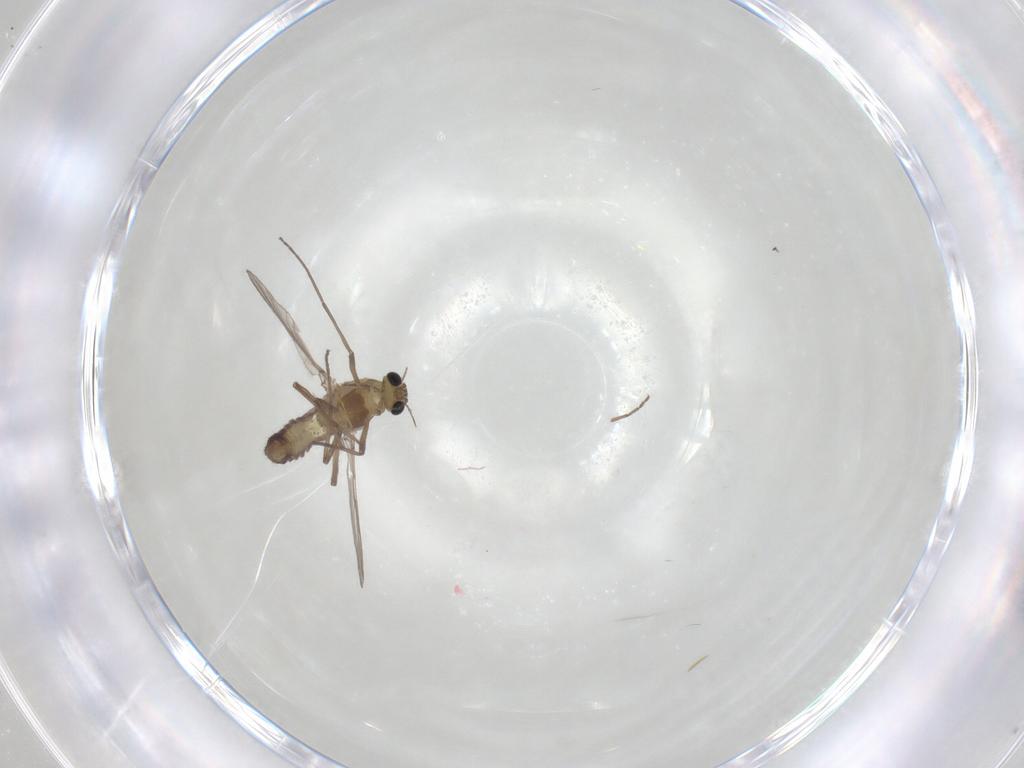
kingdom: Animalia
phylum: Arthropoda
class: Insecta
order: Diptera
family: Chironomidae
